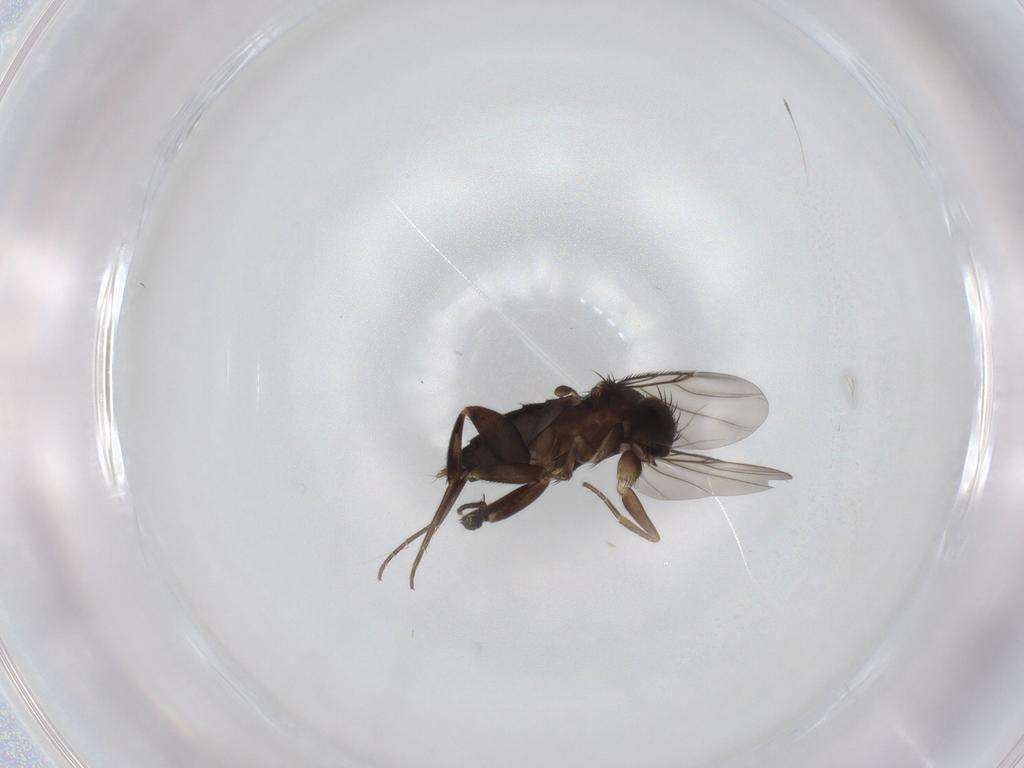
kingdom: Animalia
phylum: Arthropoda
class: Insecta
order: Diptera
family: Phoridae
